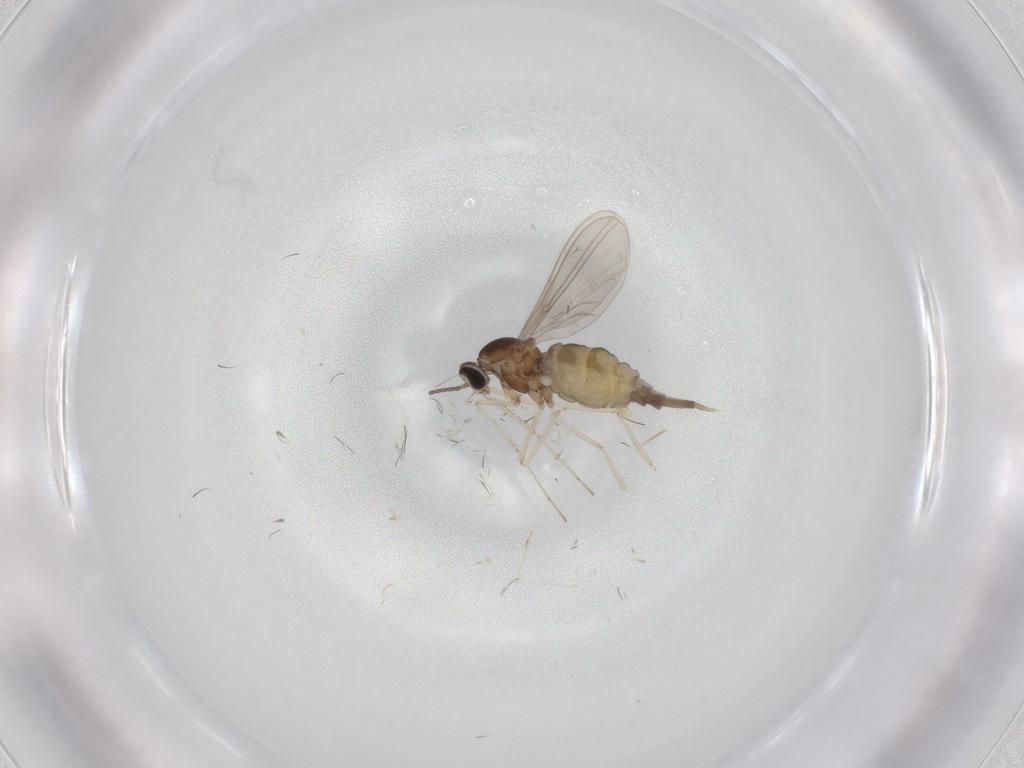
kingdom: Animalia
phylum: Arthropoda
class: Insecta
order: Diptera
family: Cecidomyiidae
